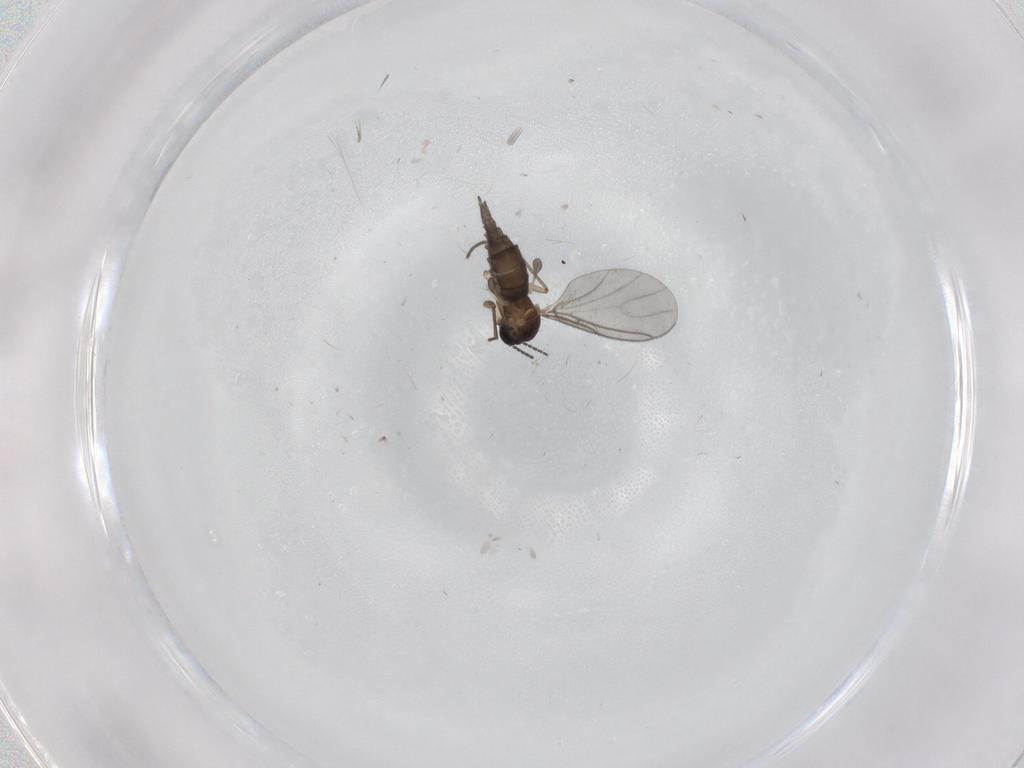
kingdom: Animalia
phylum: Arthropoda
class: Insecta
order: Diptera
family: Sciaridae
